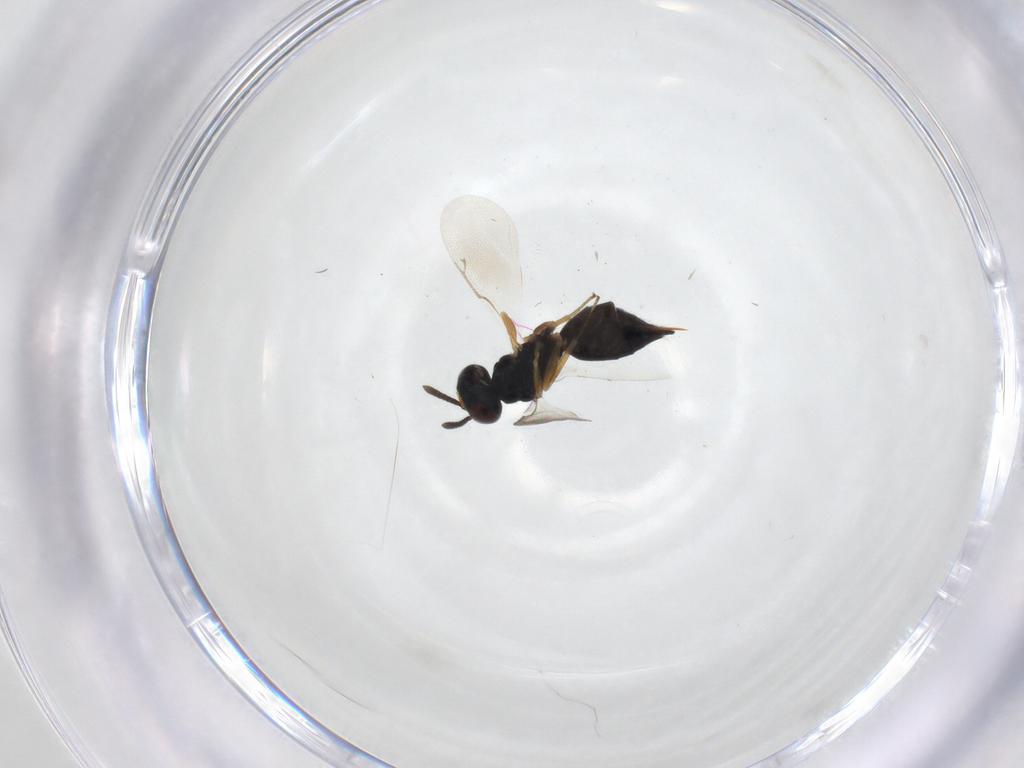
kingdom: Animalia
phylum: Arthropoda
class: Insecta
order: Hymenoptera
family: Pteromalidae
